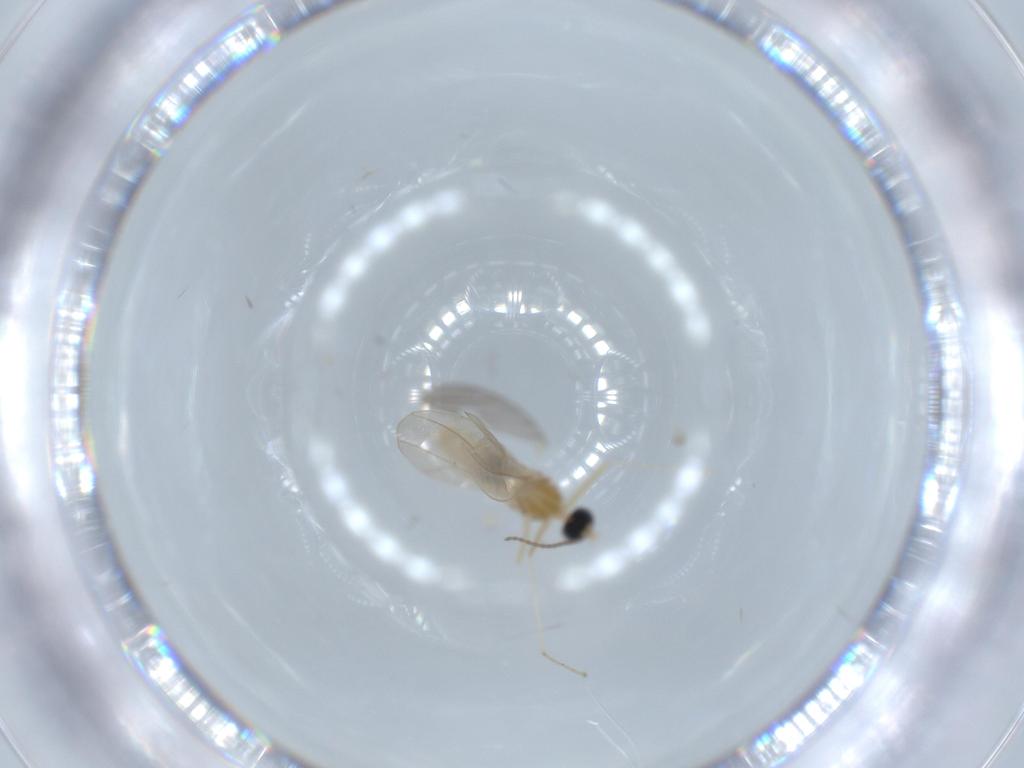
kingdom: Animalia
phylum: Arthropoda
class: Insecta
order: Diptera
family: Cecidomyiidae
